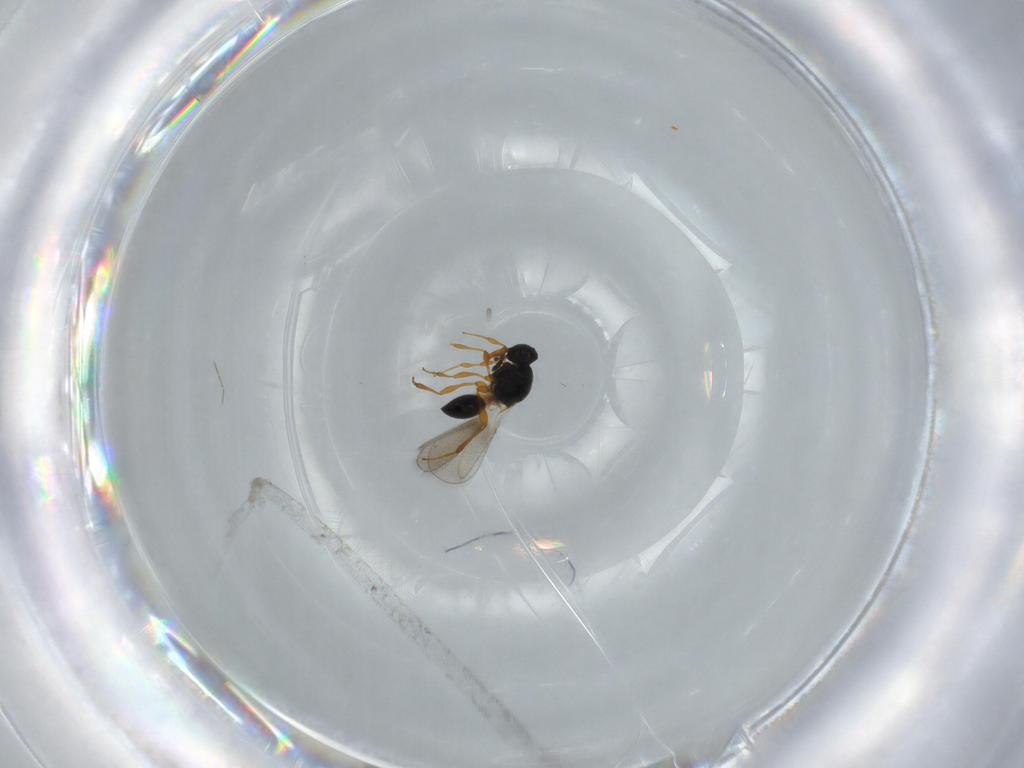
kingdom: Animalia
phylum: Arthropoda
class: Insecta
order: Hymenoptera
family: Platygastridae
